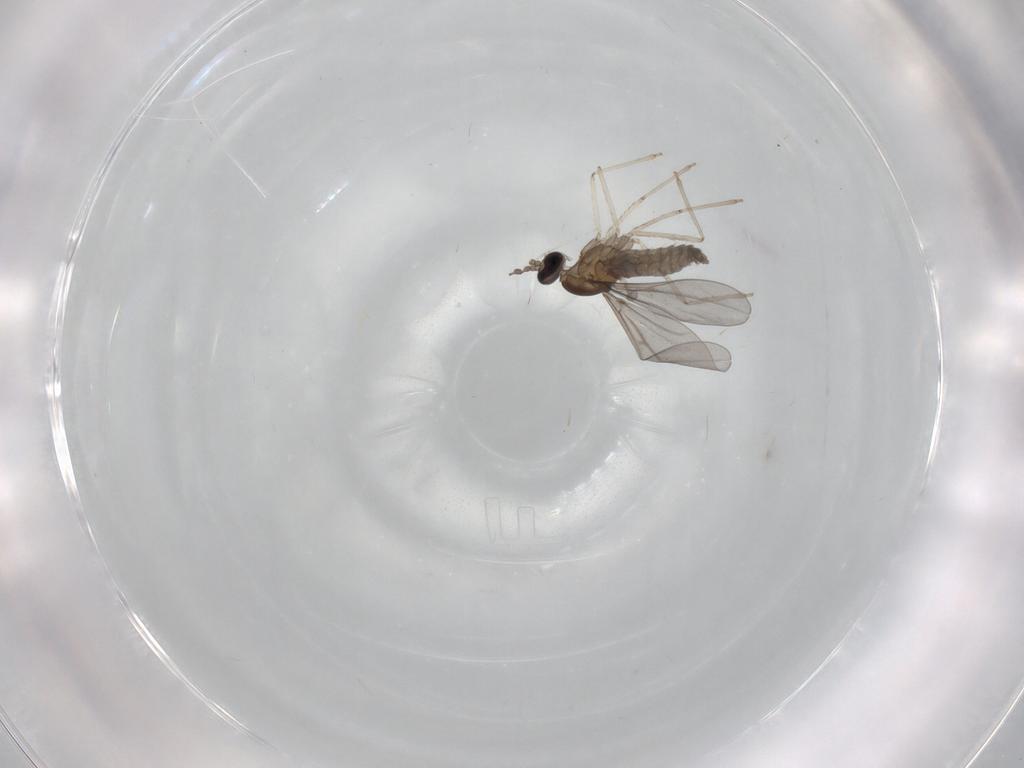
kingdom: Animalia
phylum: Arthropoda
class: Insecta
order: Diptera
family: Cecidomyiidae
